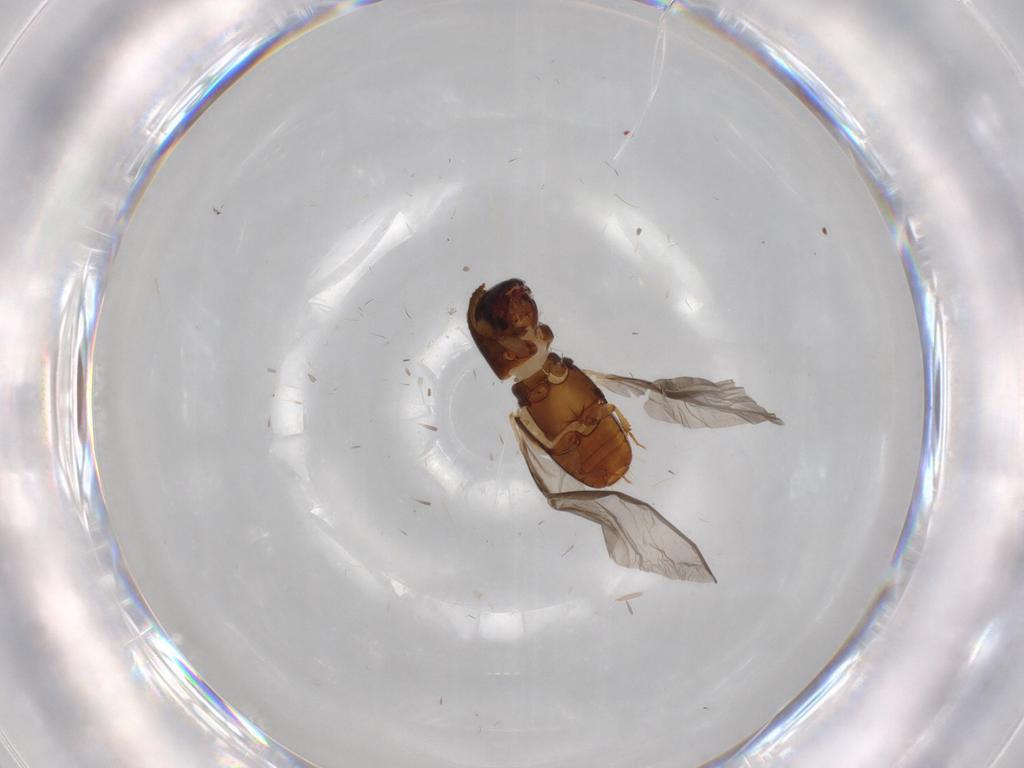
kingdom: Animalia
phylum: Arthropoda
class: Insecta
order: Coleoptera
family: Curculionidae
